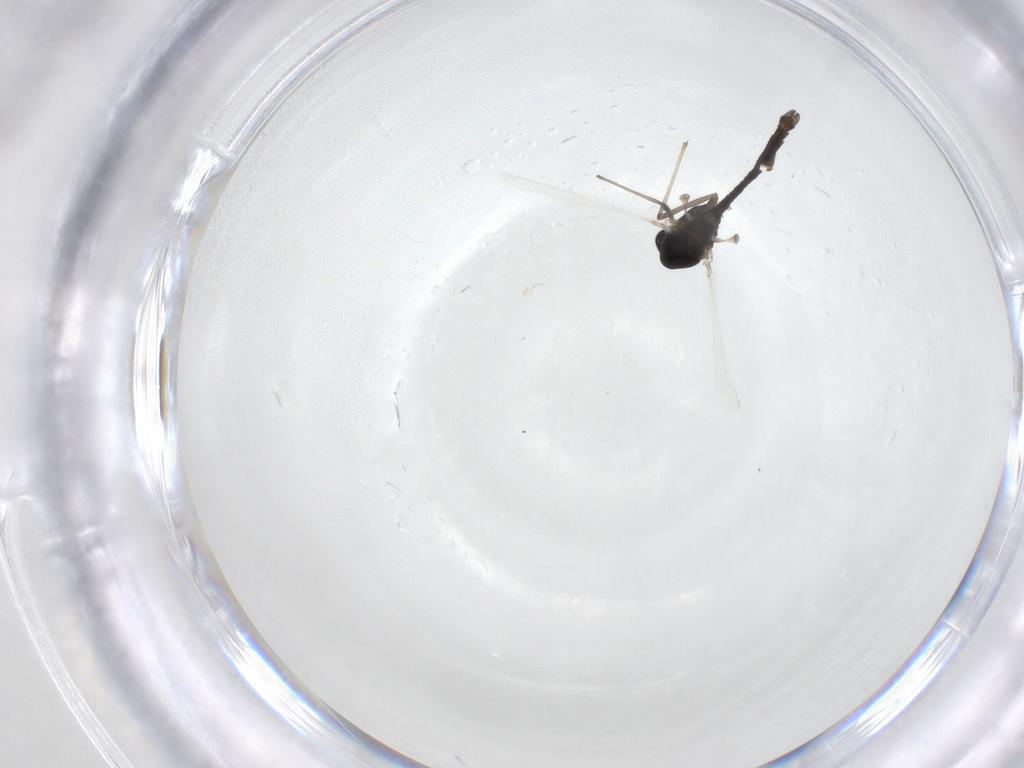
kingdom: Animalia
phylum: Arthropoda
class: Insecta
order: Diptera
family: Chironomidae
